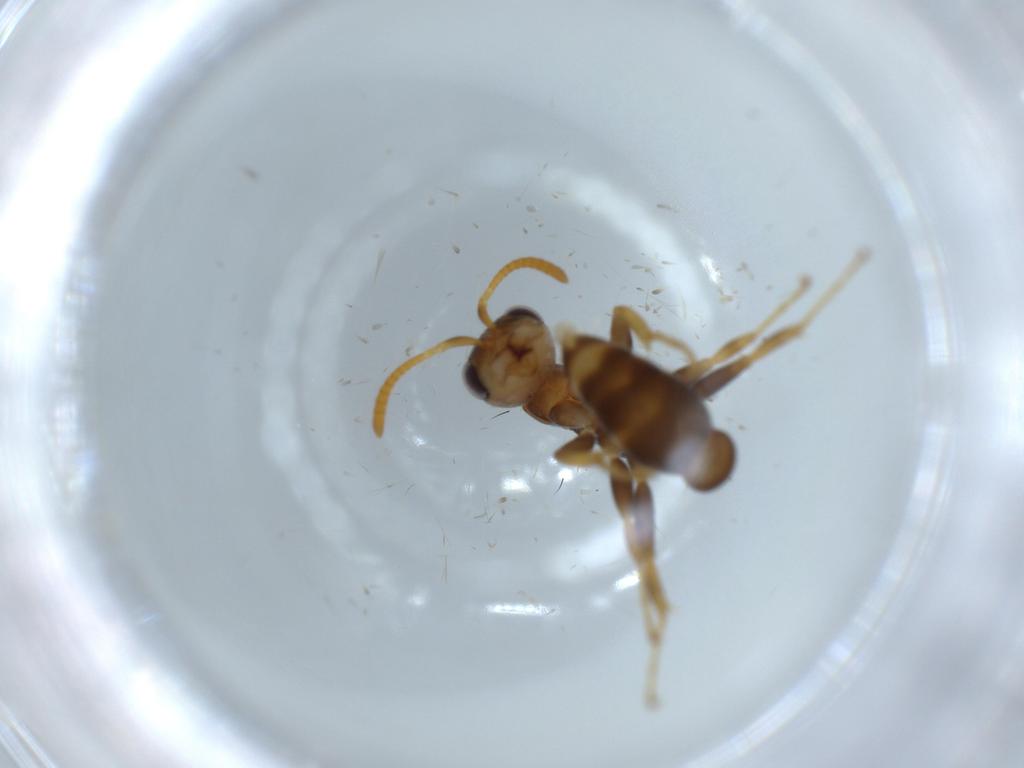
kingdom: Animalia
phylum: Arthropoda
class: Insecta
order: Hymenoptera
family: Formicidae
